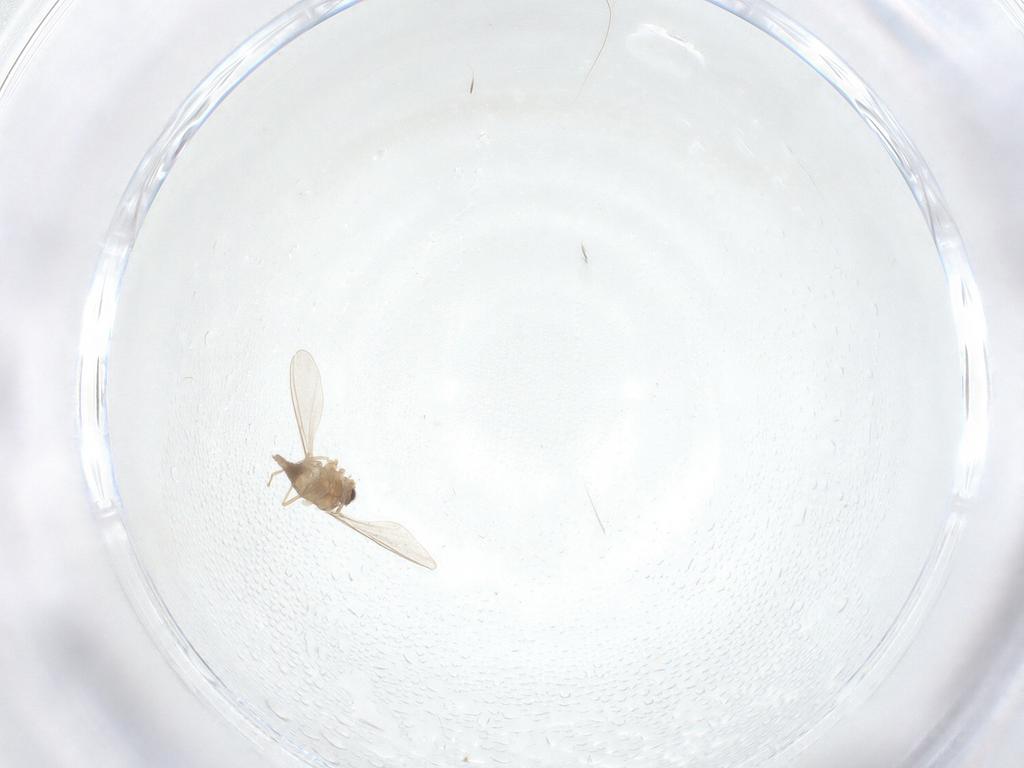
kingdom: Animalia
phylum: Arthropoda
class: Insecta
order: Diptera
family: Cecidomyiidae
